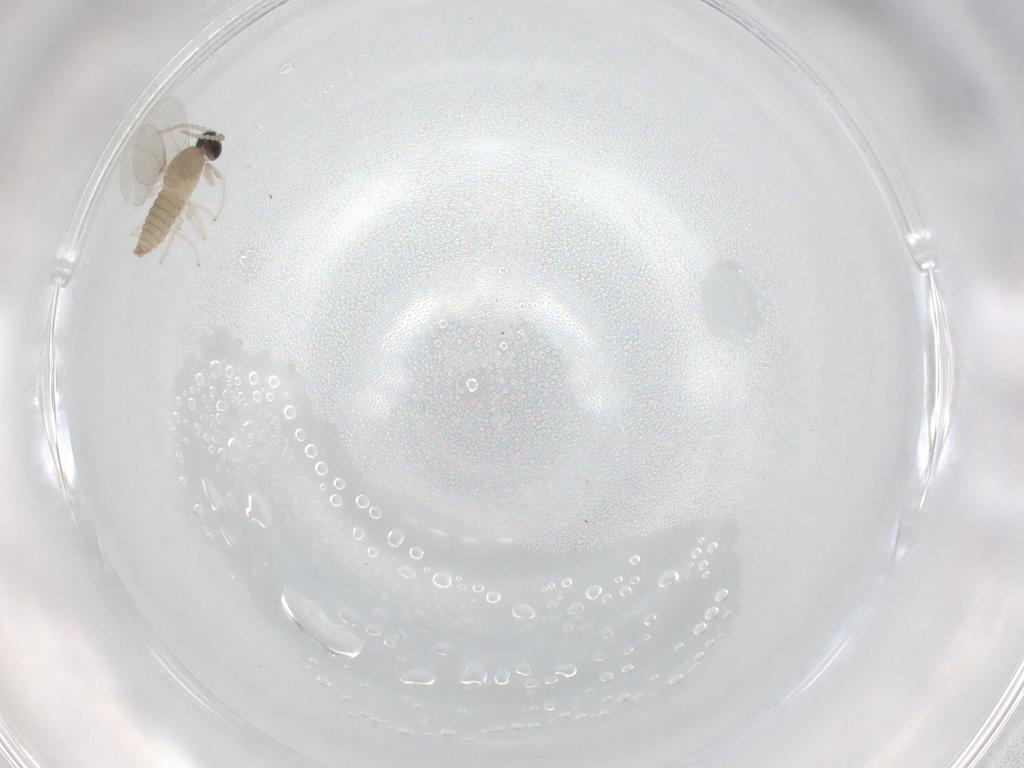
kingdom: Animalia
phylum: Arthropoda
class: Insecta
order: Diptera
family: Cecidomyiidae
